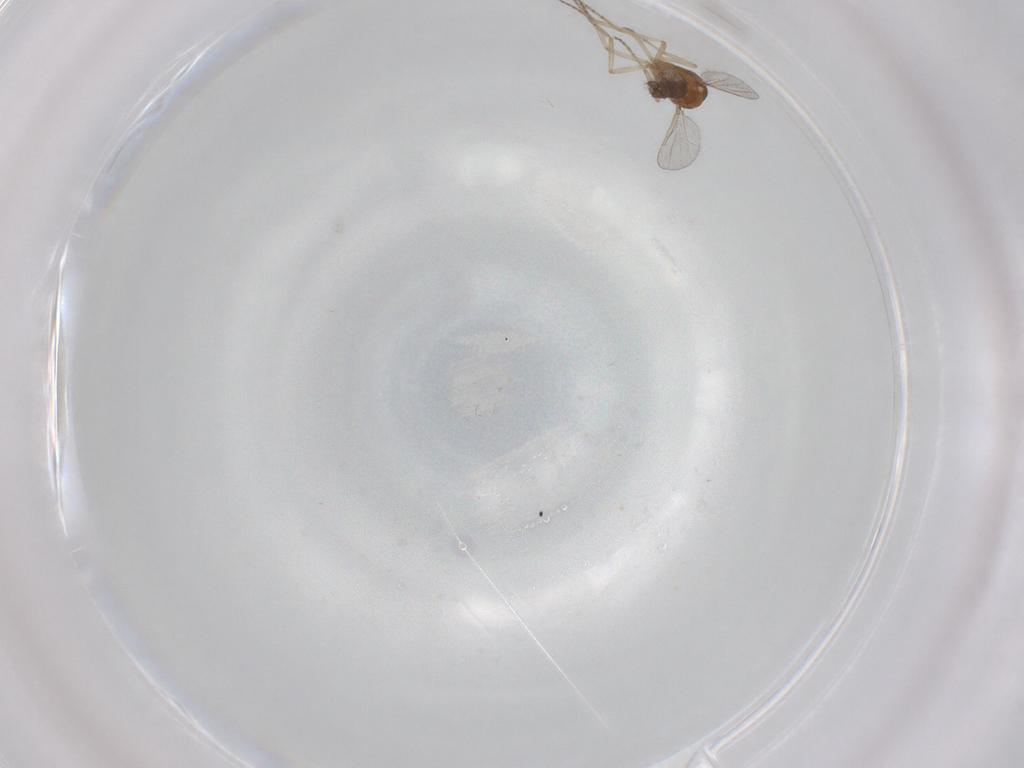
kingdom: Animalia
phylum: Arthropoda
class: Insecta
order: Diptera
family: Ceratopogonidae
